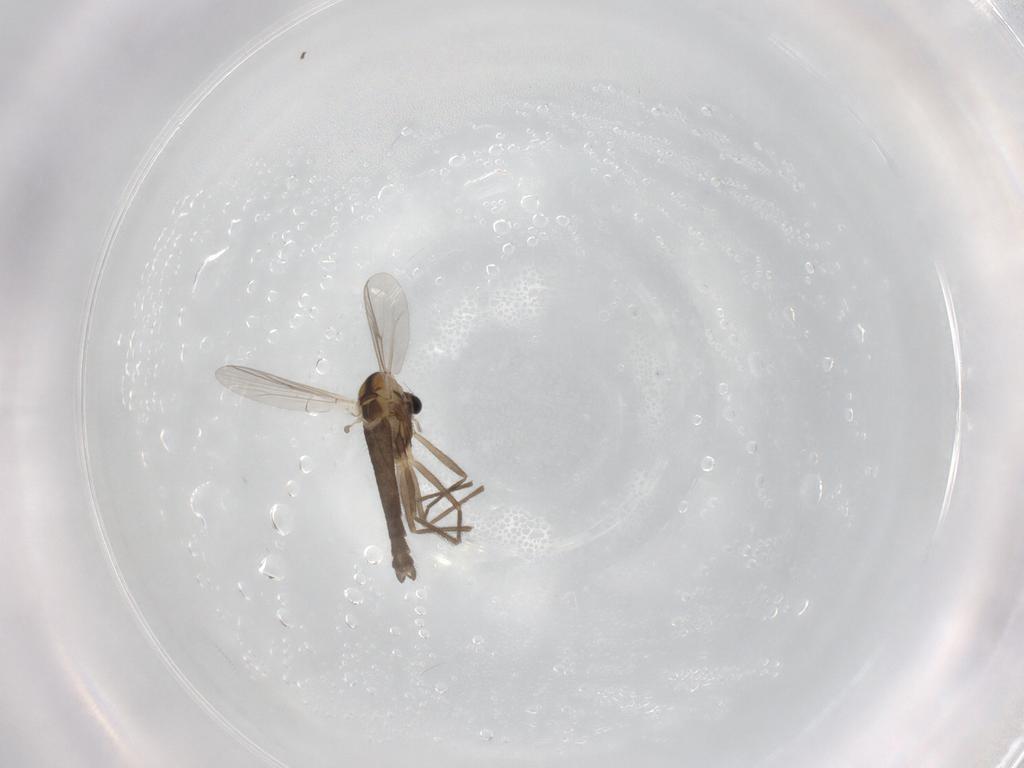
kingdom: Animalia
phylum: Arthropoda
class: Insecta
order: Diptera
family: Chironomidae
